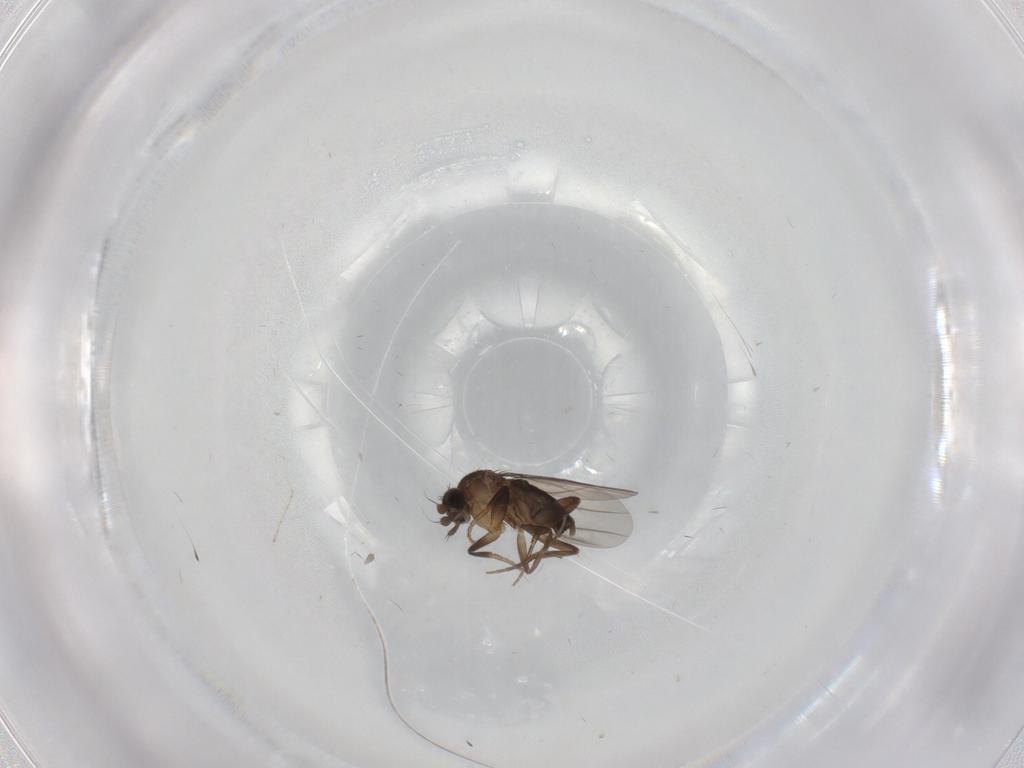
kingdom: Animalia
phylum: Arthropoda
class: Insecta
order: Diptera
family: Phoridae
